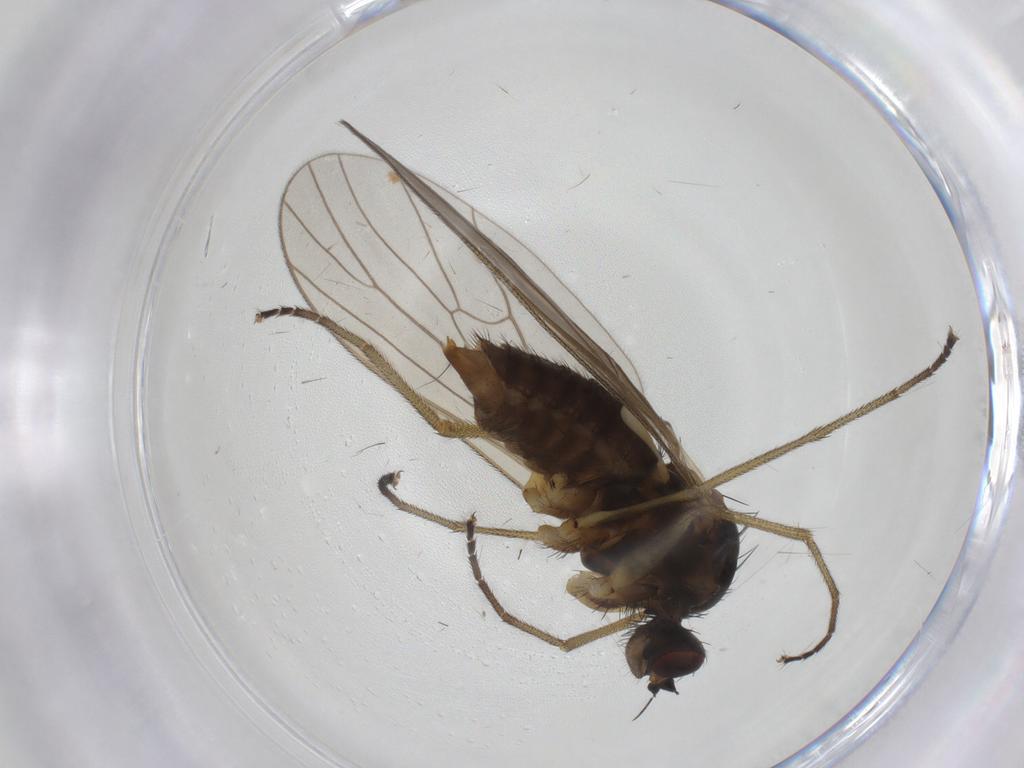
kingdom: Animalia
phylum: Arthropoda
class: Insecta
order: Diptera
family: Brachystomatidae
